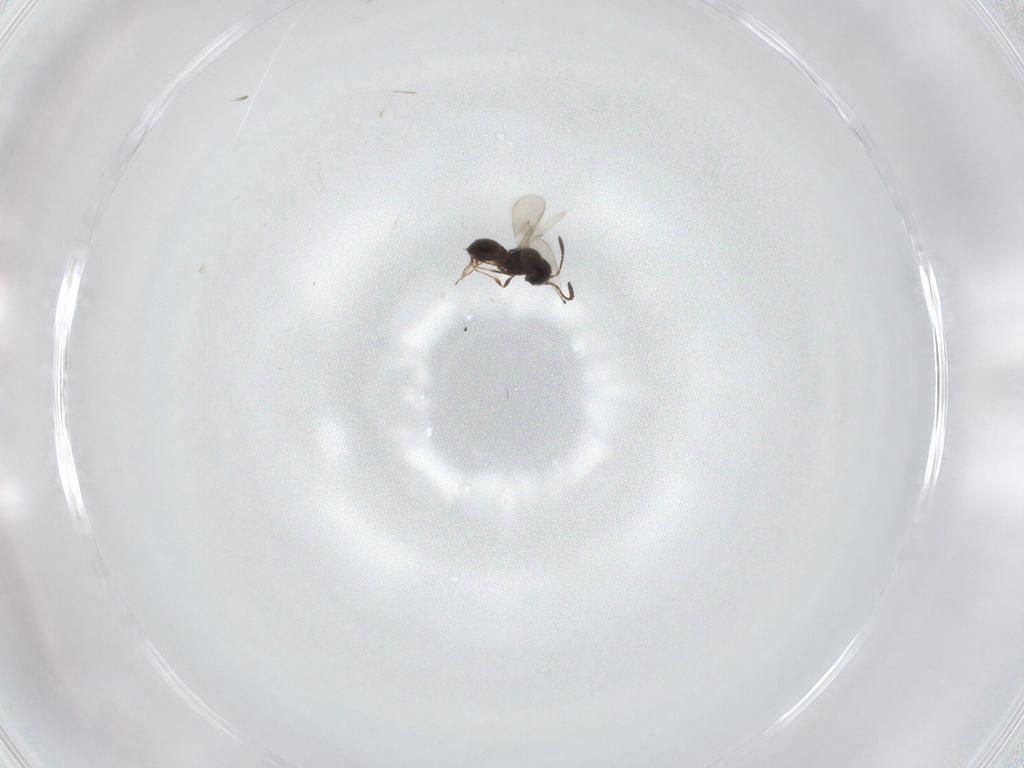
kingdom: Animalia
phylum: Arthropoda
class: Insecta
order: Hymenoptera
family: Scelionidae
